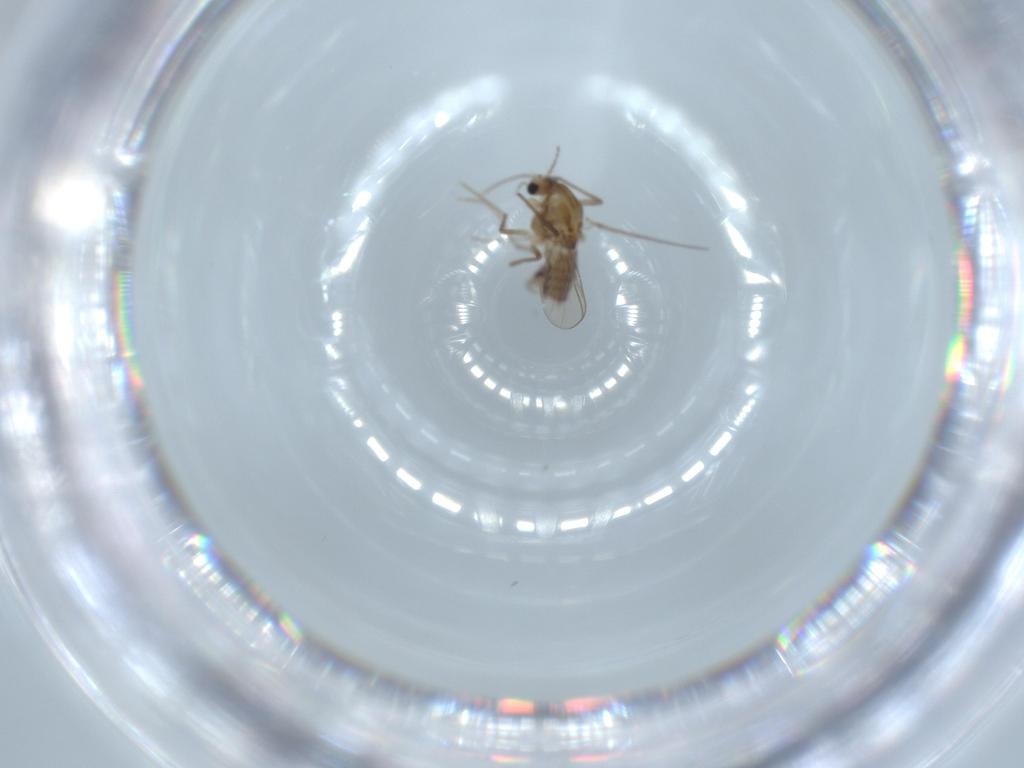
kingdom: Animalia
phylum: Arthropoda
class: Insecta
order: Diptera
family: Chironomidae
